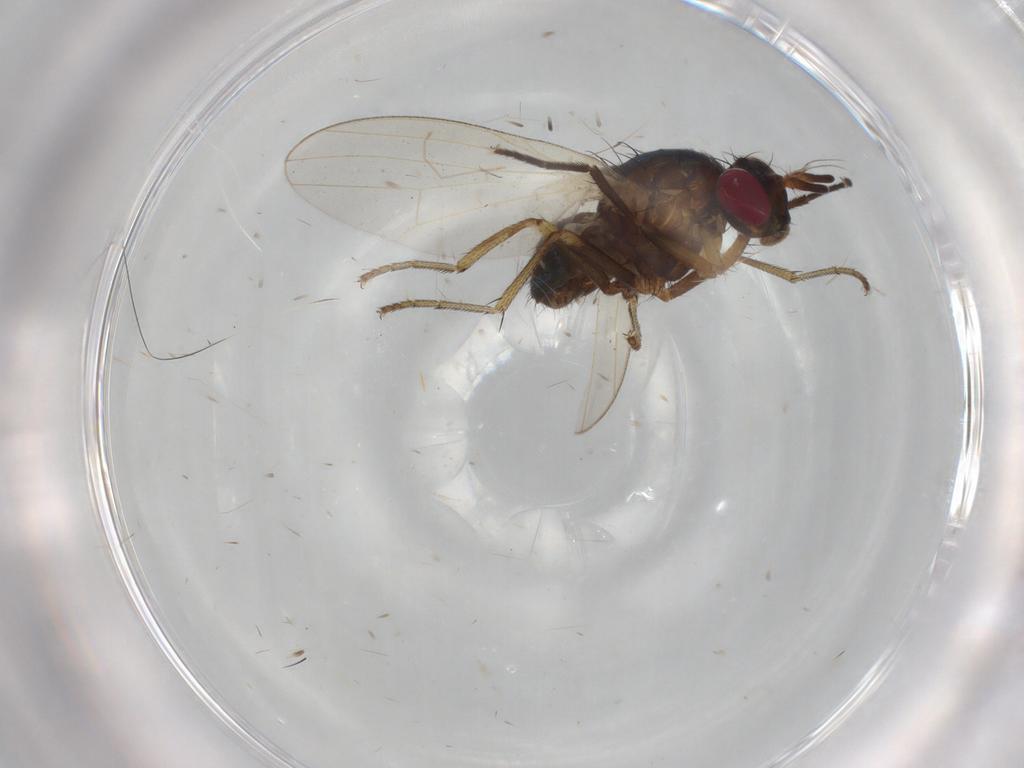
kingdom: Animalia
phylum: Arthropoda
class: Insecta
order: Diptera
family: Lauxaniidae
